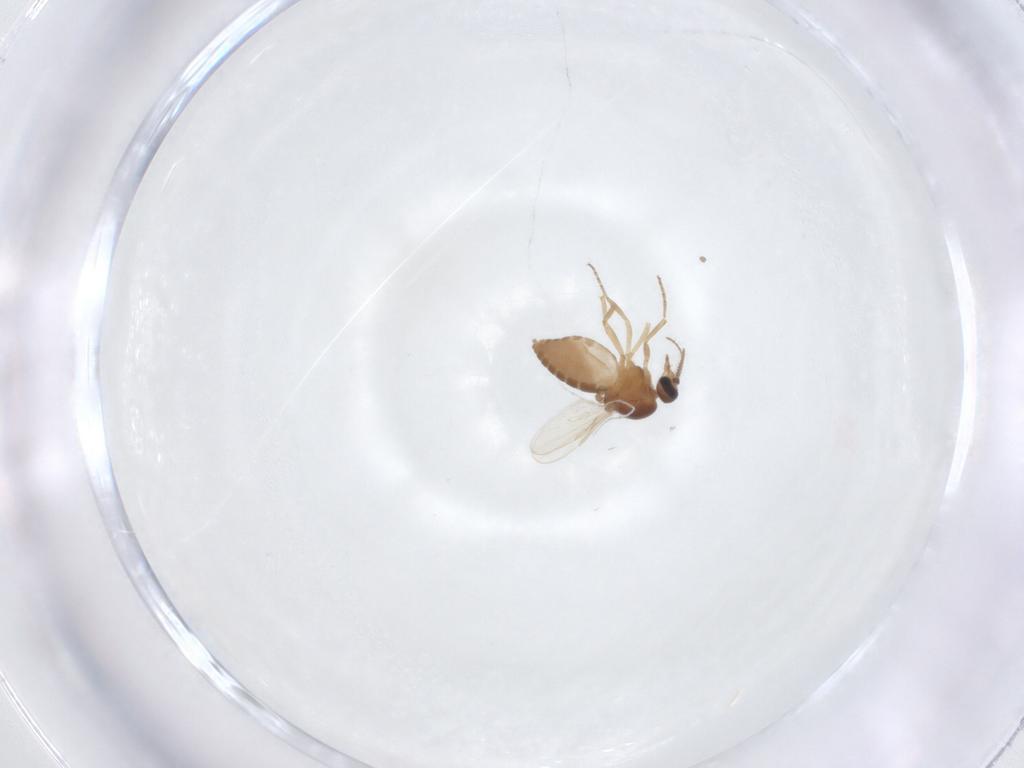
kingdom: Animalia
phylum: Arthropoda
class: Insecta
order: Diptera
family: Ceratopogonidae
